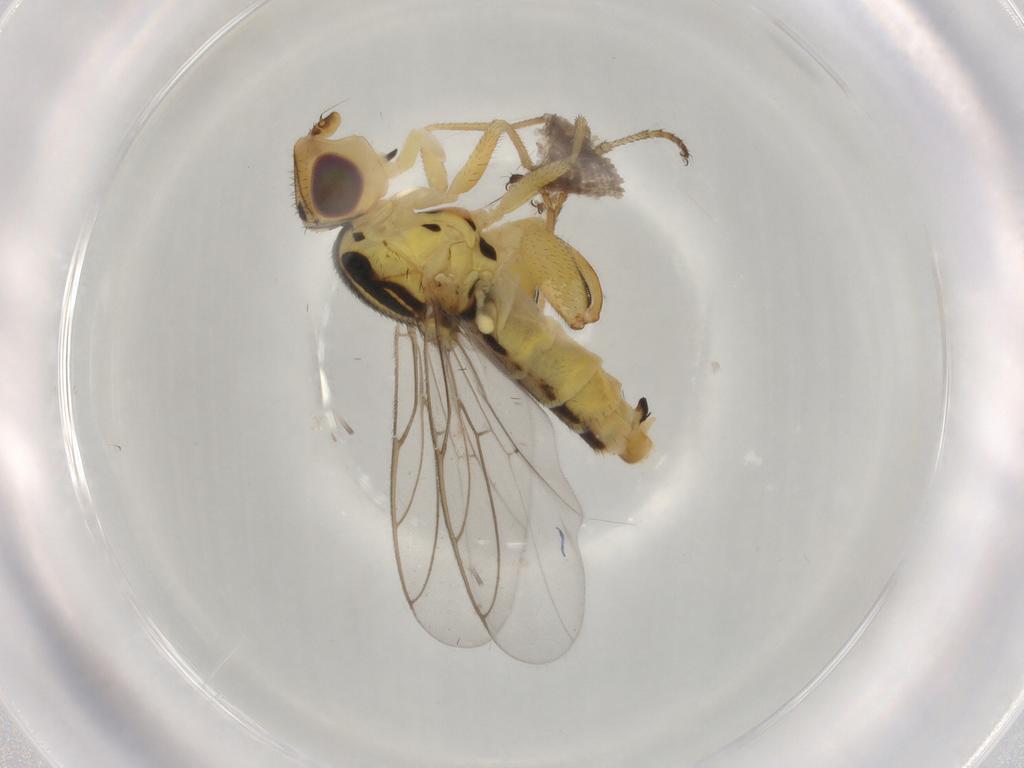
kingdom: Animalia
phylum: Arthropoda
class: Insecta
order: Diptera
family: Chloropidae
